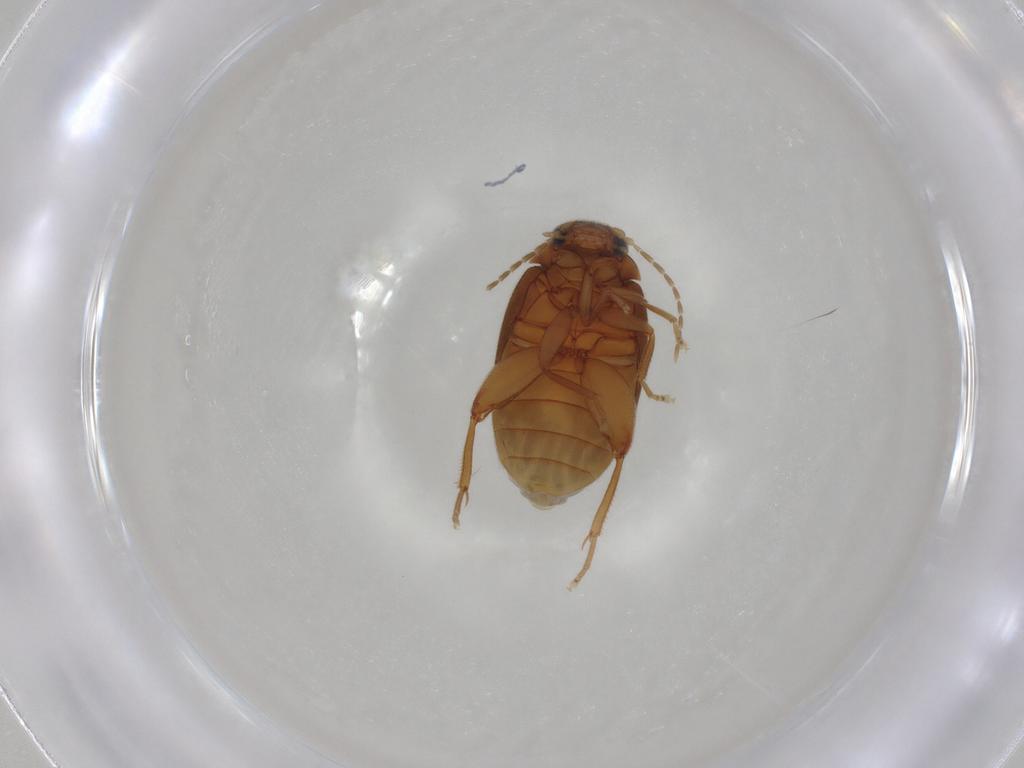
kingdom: Animalia
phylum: Arthropoda
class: Insecta
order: Coleoptera
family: Scirtidae
